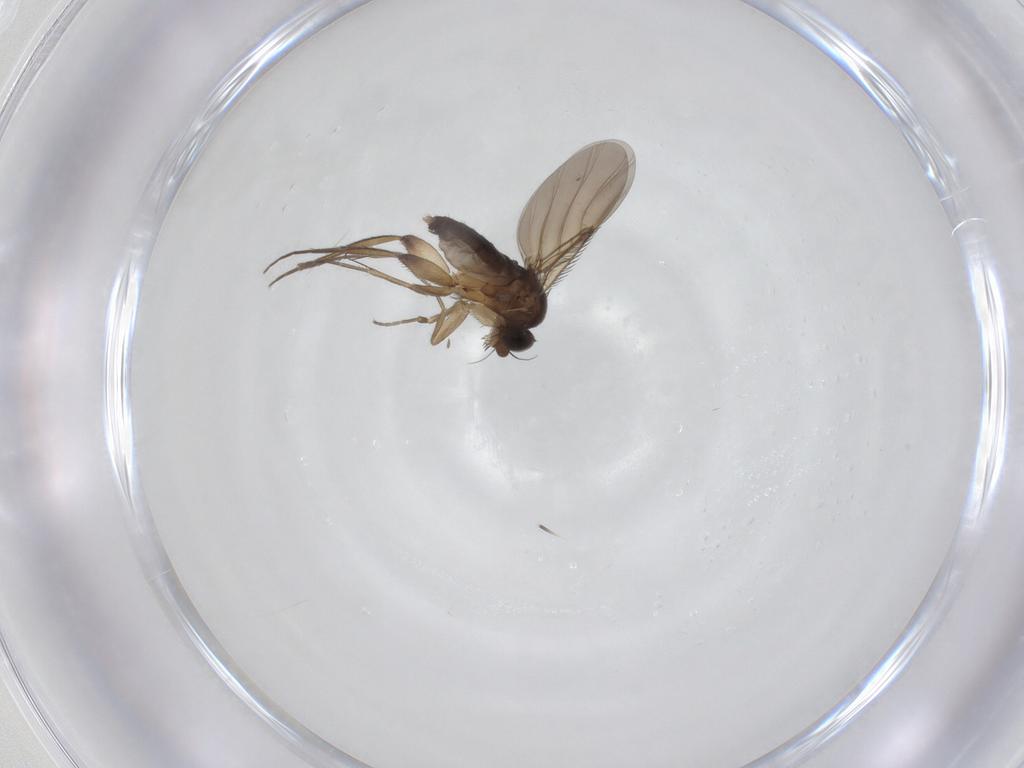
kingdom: Animalia
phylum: Arthropoda
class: Insecta
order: Diptera
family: Chironomidae
